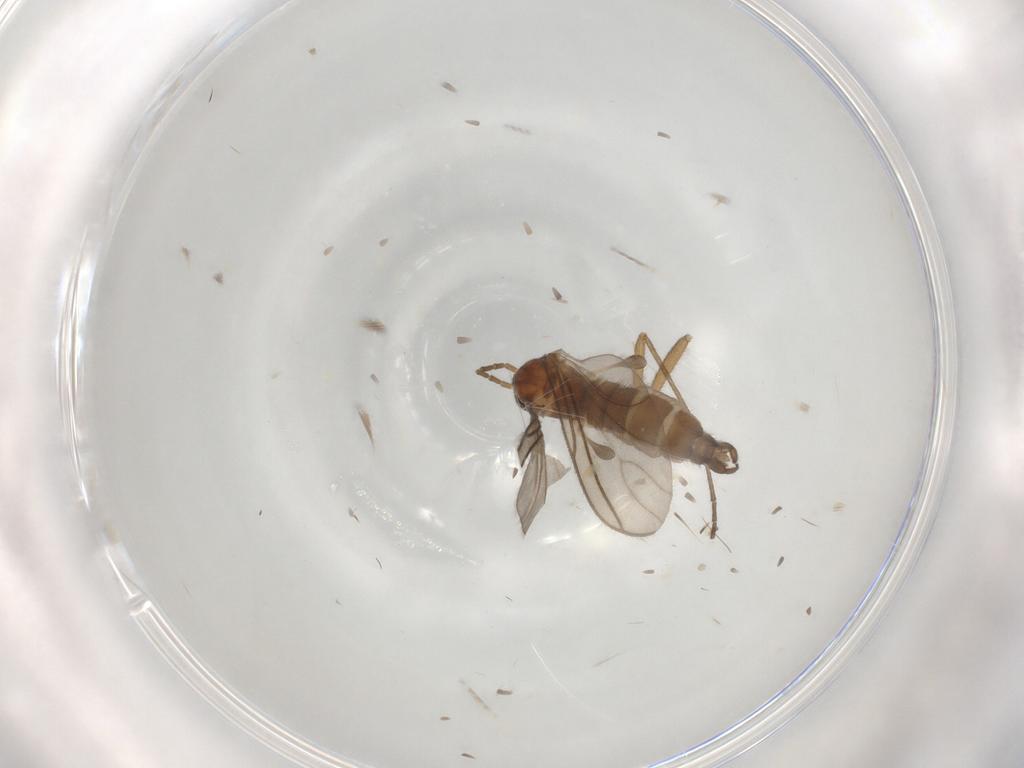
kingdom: Animalia
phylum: Arthropoda
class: Insecta
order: Diptera
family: Sciaridae
